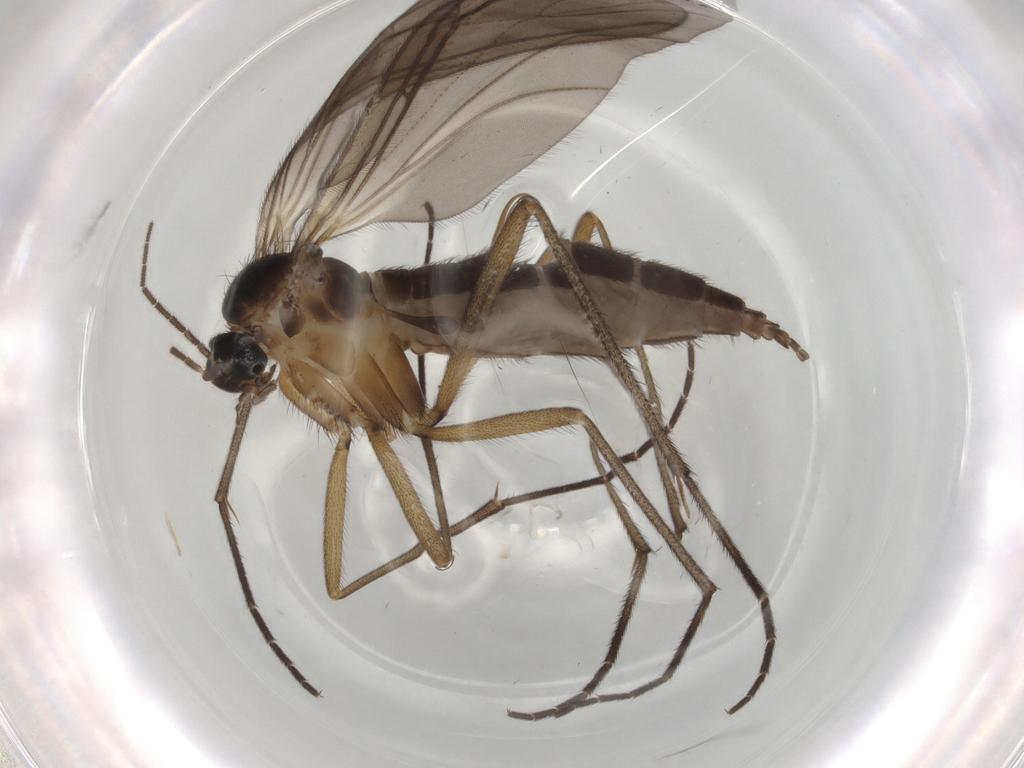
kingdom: Animalia
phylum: Arthropoda
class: Insecta
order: Diptera
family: Sciaridae
